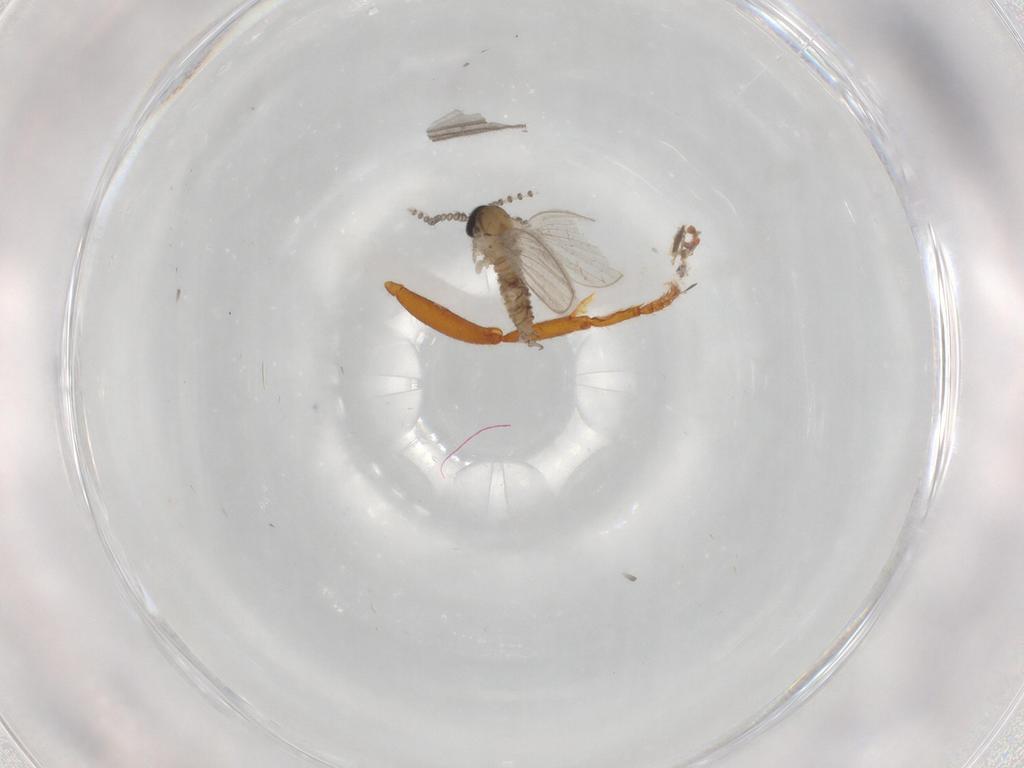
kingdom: Animalia
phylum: Arthropoda
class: Insecta
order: Diptera
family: Psychodidae
